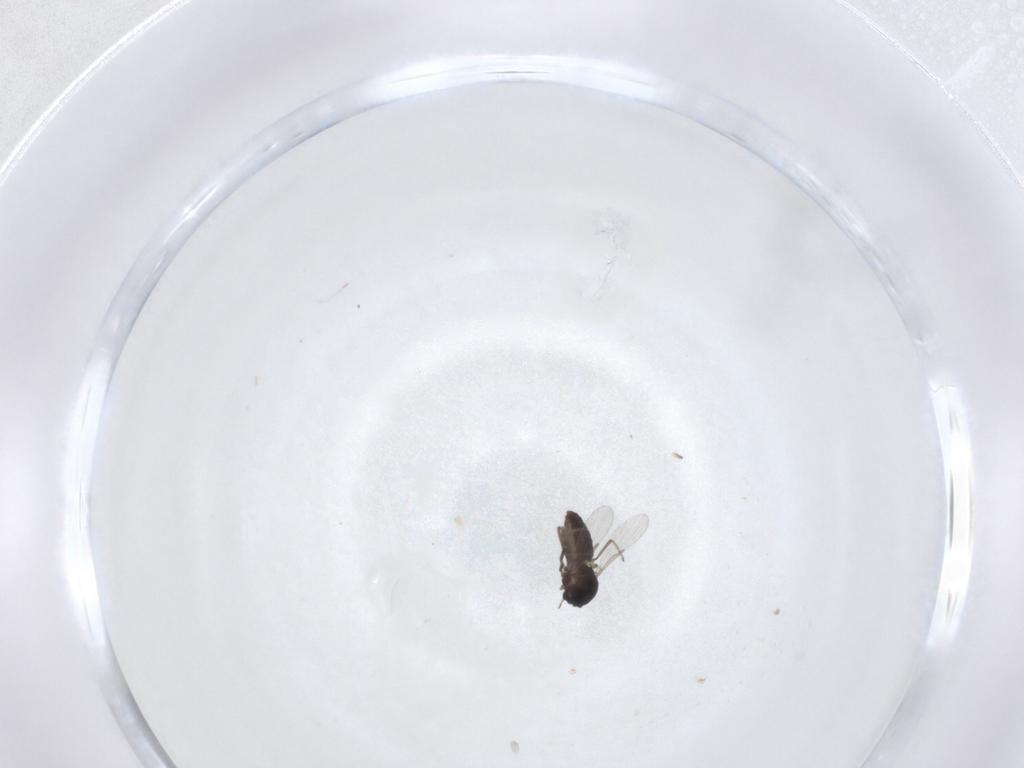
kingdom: Animalia
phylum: Arthropoda
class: Insecta
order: Diptera
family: Ceratopogonidae
